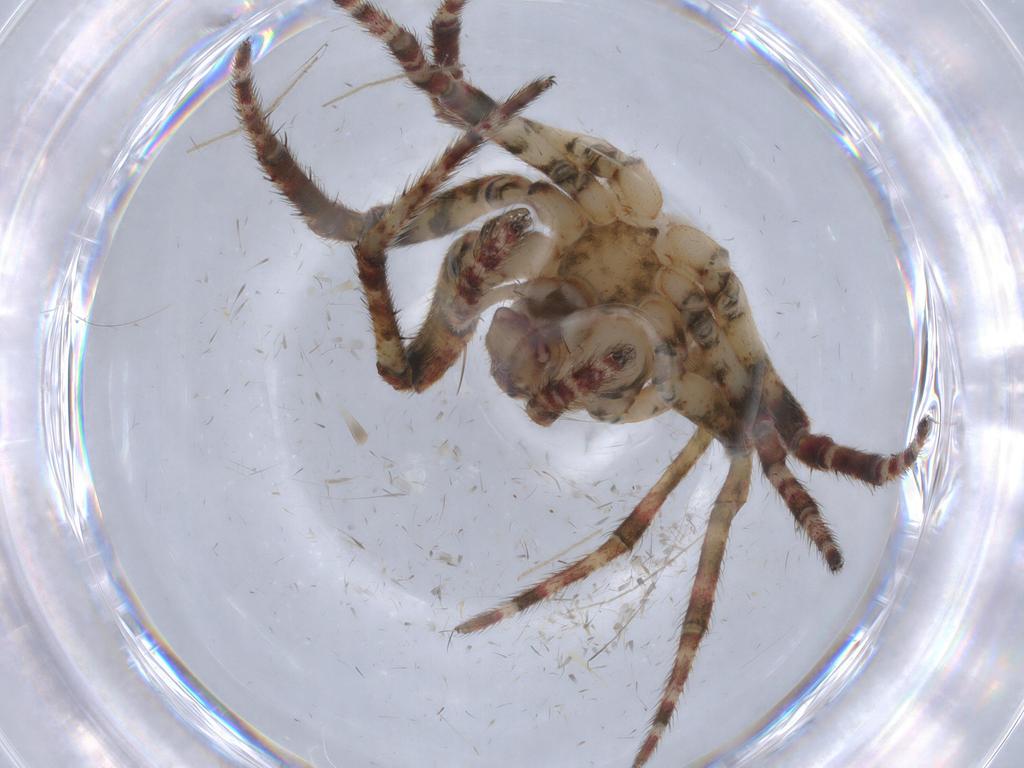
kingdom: Animalia
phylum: Arthropoda
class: Arachnida
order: Araneae
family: Araneidae
